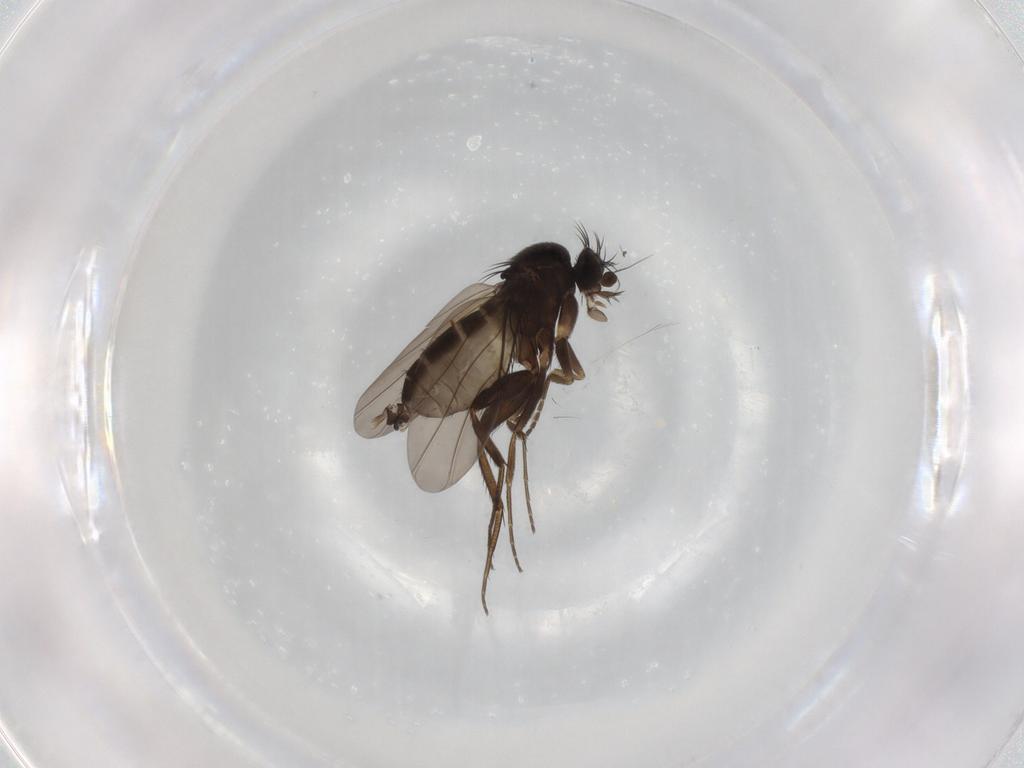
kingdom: Animalia
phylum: Arthropoda
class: Insecta
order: Diptera
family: Phoridae
